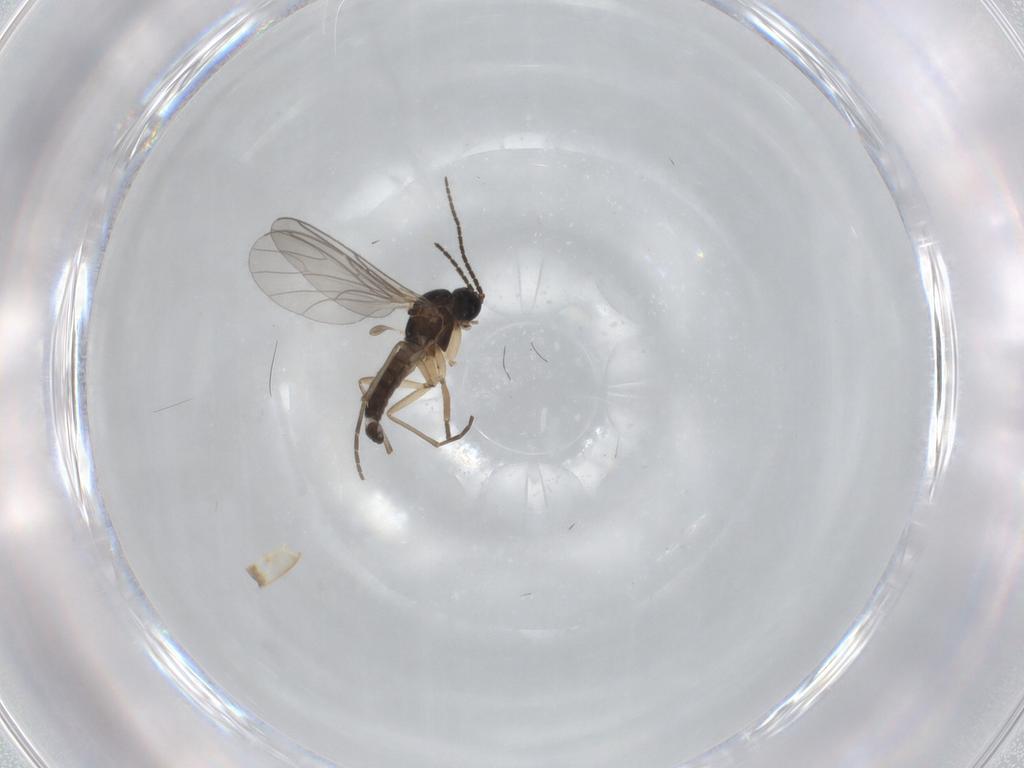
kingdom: Animalia
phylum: Arthropoda
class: Insecta
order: Diptera
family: Sciaridae
